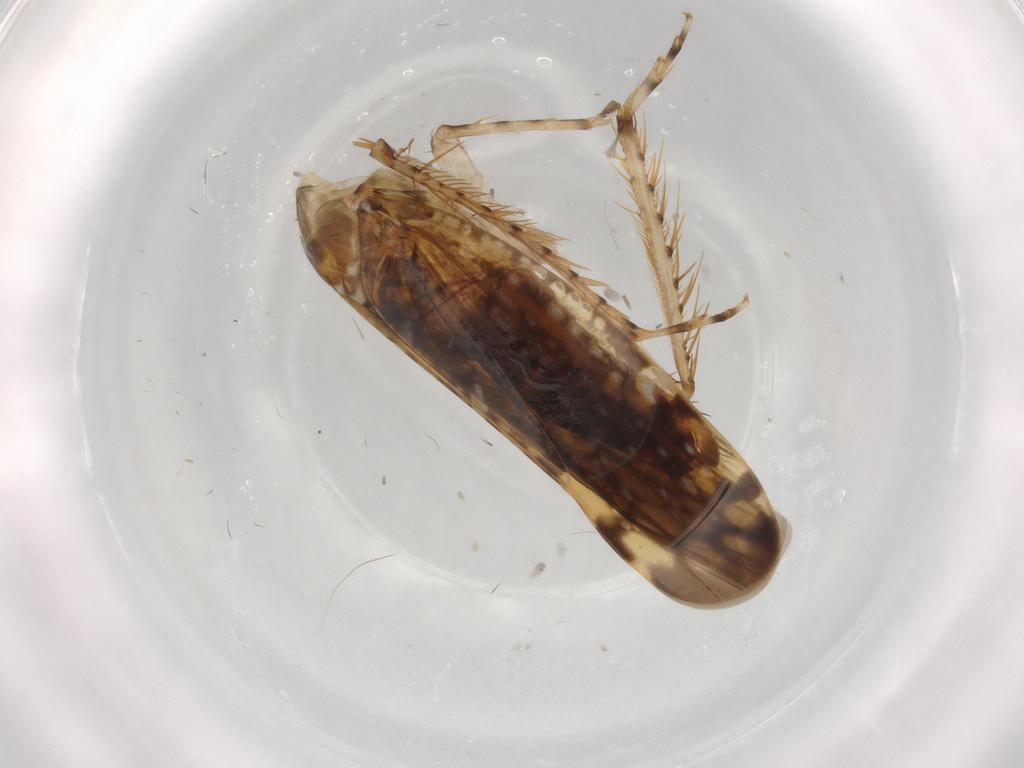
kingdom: Animalia
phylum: Arthropoda
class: Insecta
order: Hemiptera
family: Cicadellidae
